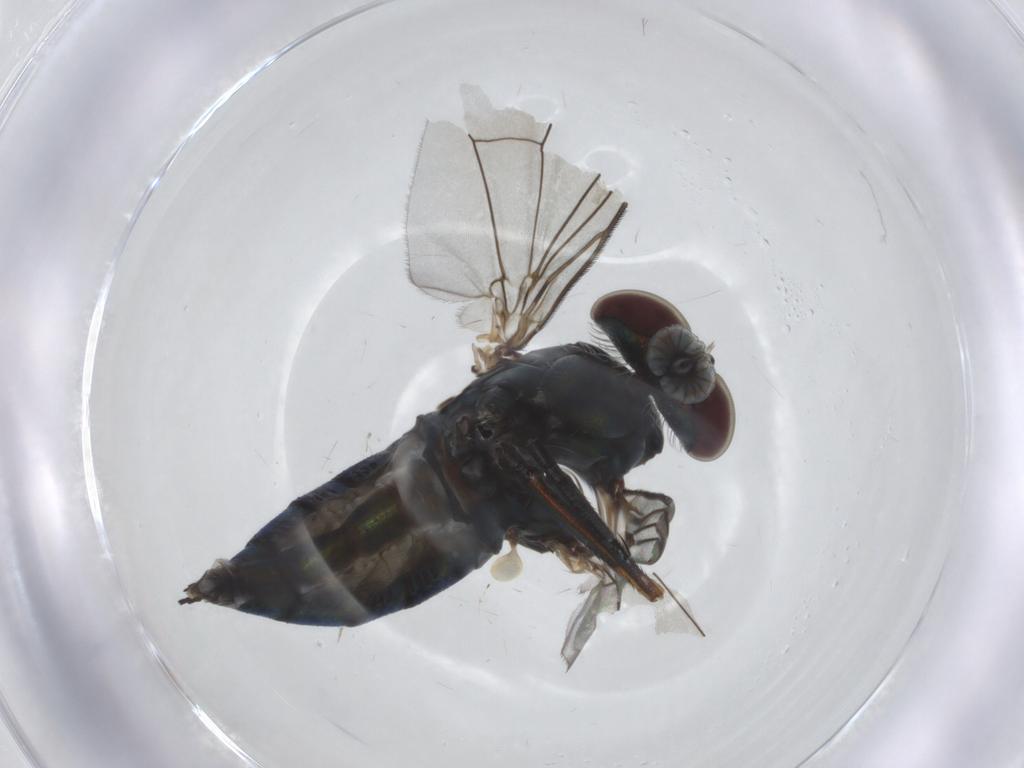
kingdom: Animalia
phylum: Arthropoda
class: Insecta
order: Diptera
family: Dolichopodidae
